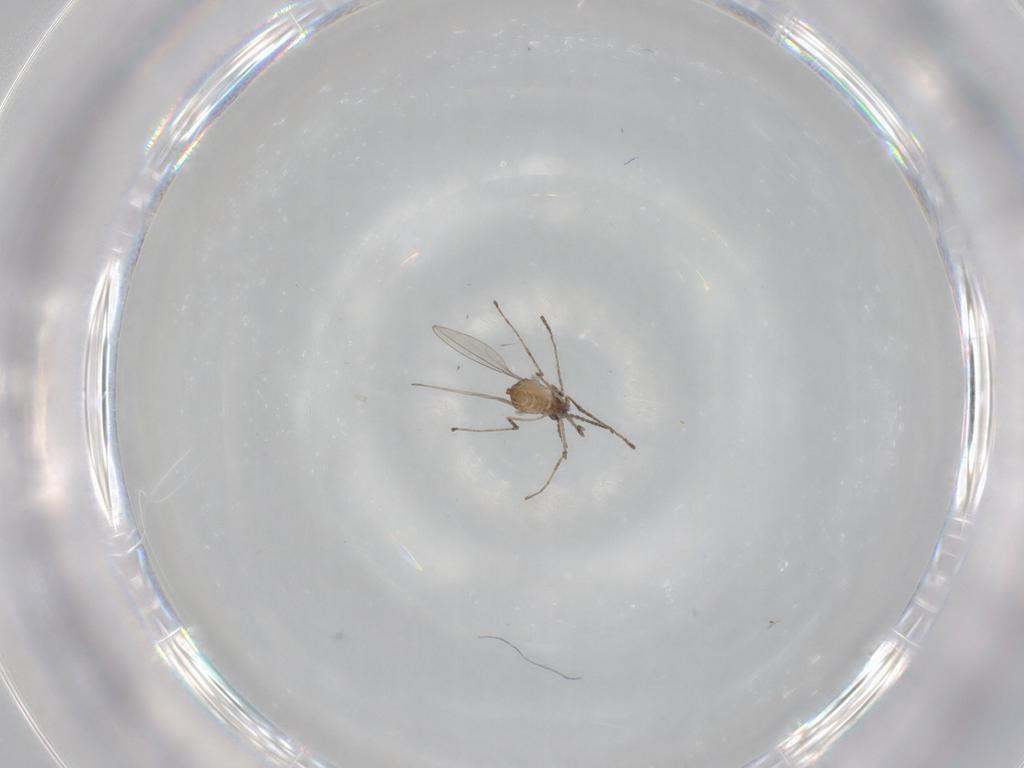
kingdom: Animalia
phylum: Arthropoda
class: Insecta
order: Diptera
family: Cecidomyiidae
